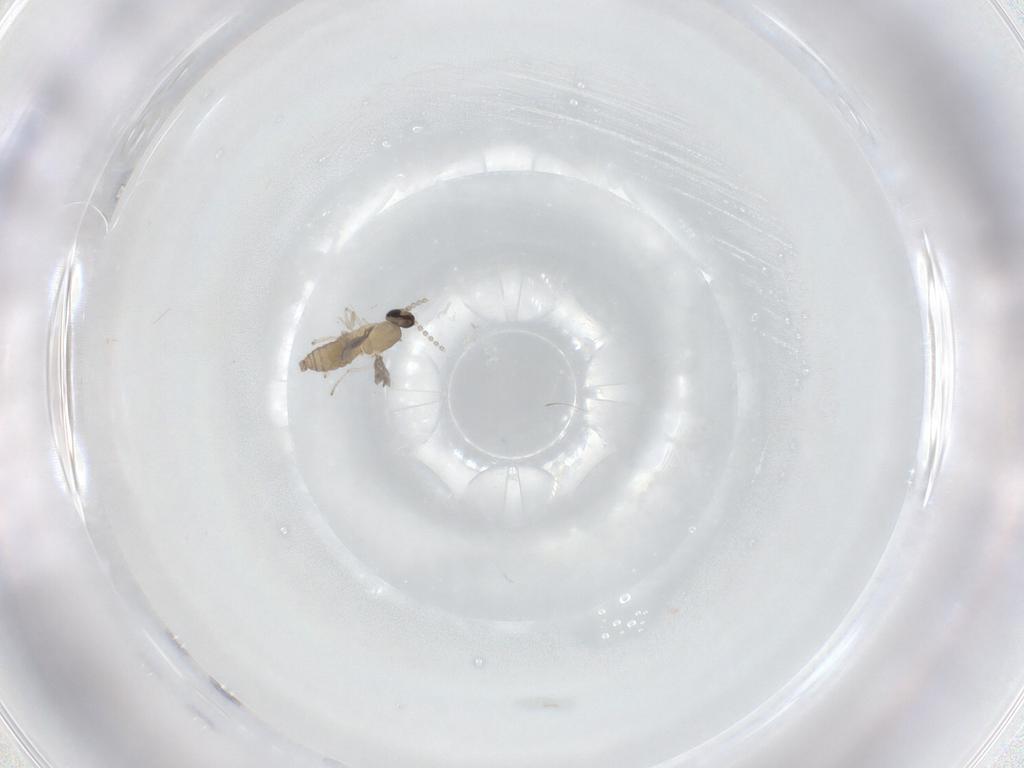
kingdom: Animalia
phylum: Arthropoda
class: Insecta
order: Diptera
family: Cecidomyiidae
